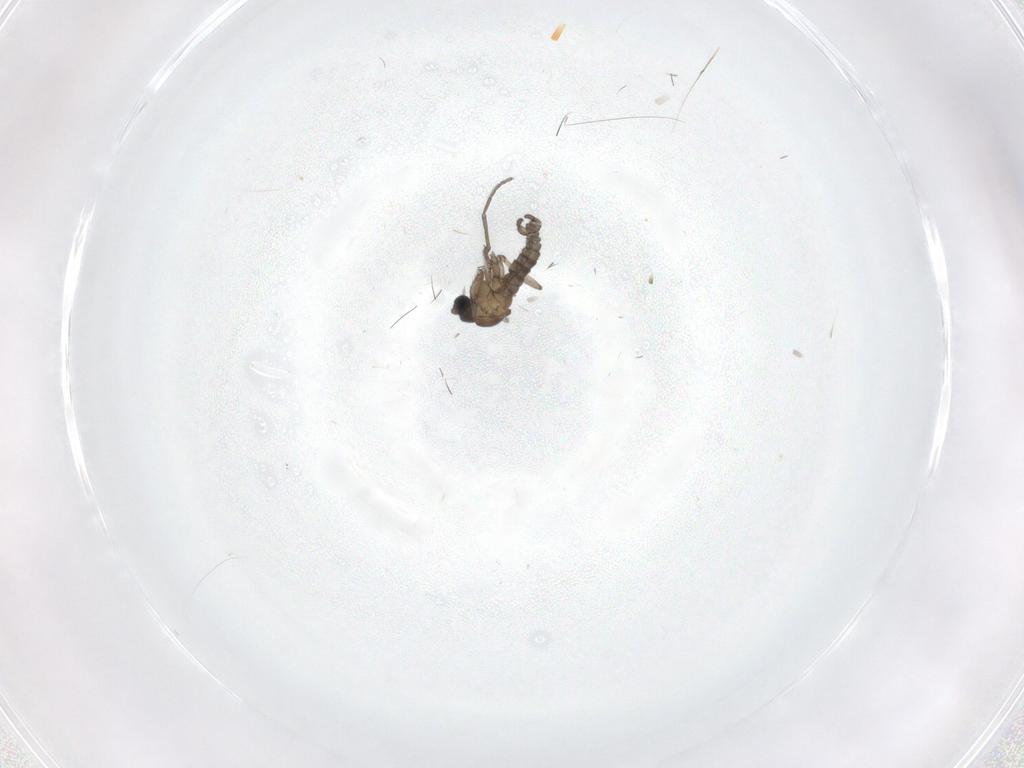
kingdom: Animalia
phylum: Arthropoda
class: Insecta
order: Diptera
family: Sciaridae
